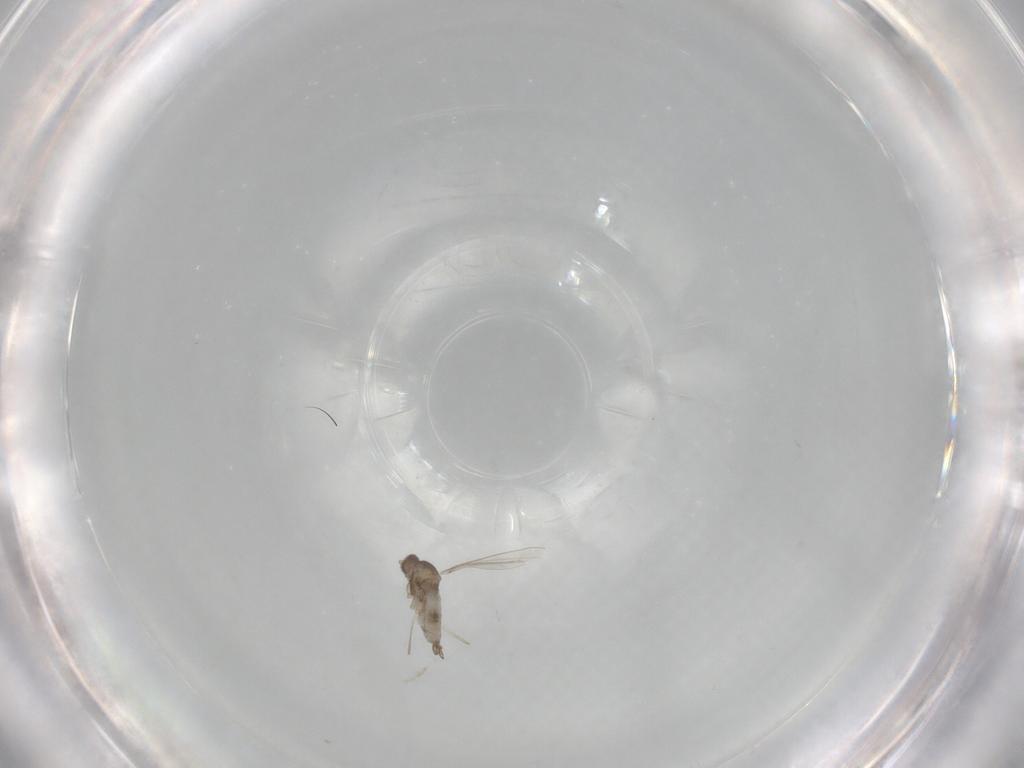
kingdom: Animalia
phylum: Arthropoda
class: Insecta
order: Diptera
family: Cecidomyiidae
